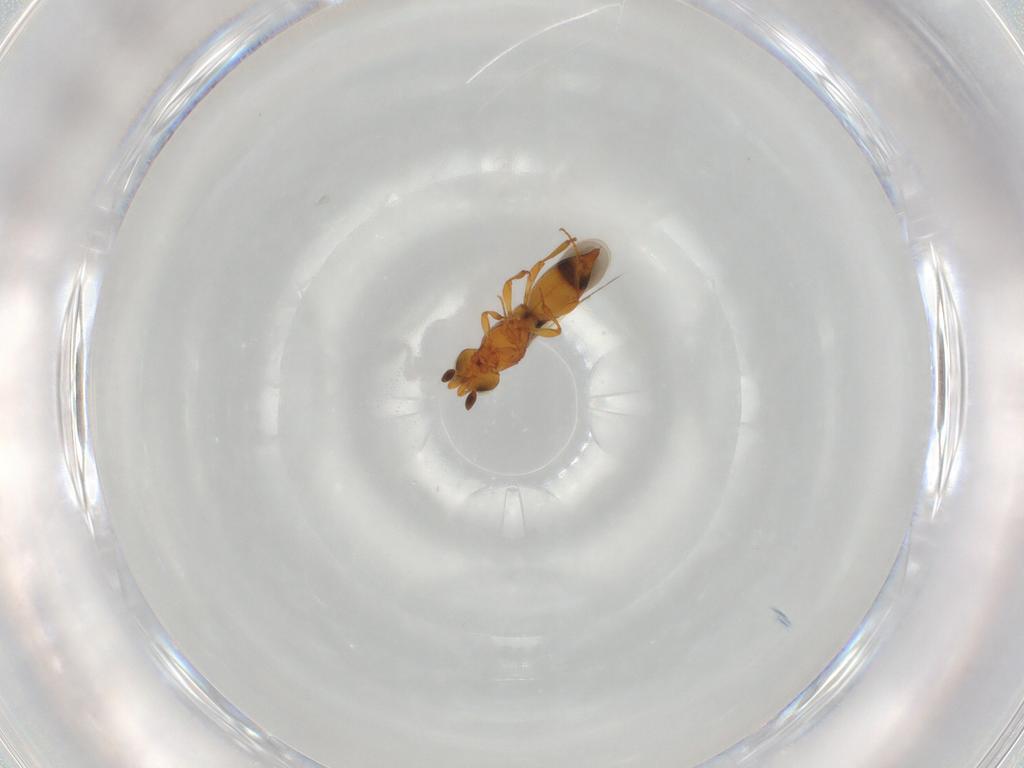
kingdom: Animalia
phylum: Arthropoda
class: Insecta
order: Hymenoptera
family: Platygastridae
